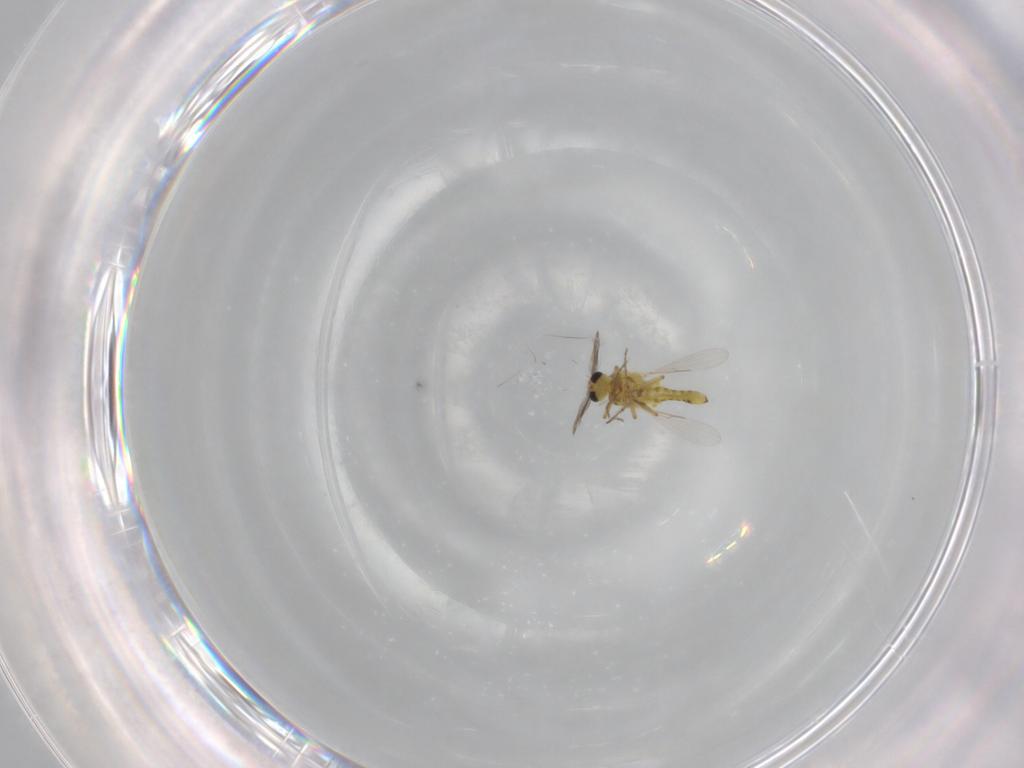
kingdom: Animalia
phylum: Arthropoda
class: Insecta
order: Diptera
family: Ceratopogonidae
